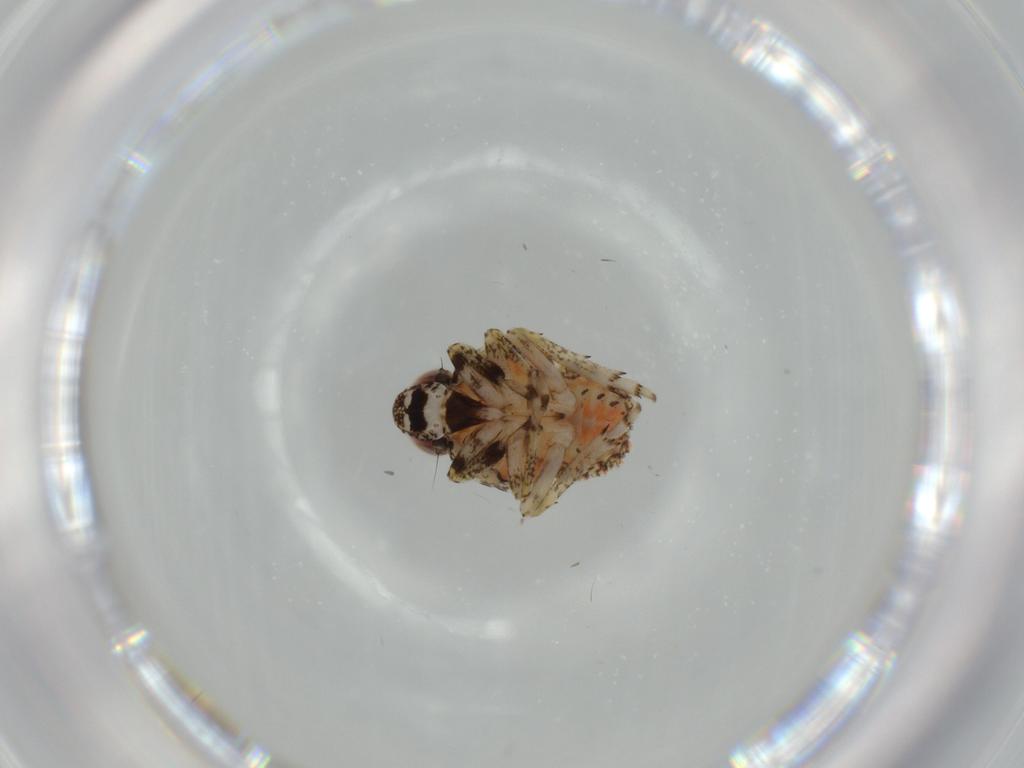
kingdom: Animalia
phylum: Arthropoda
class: Insecta
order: Hemiptera
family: Issidae
